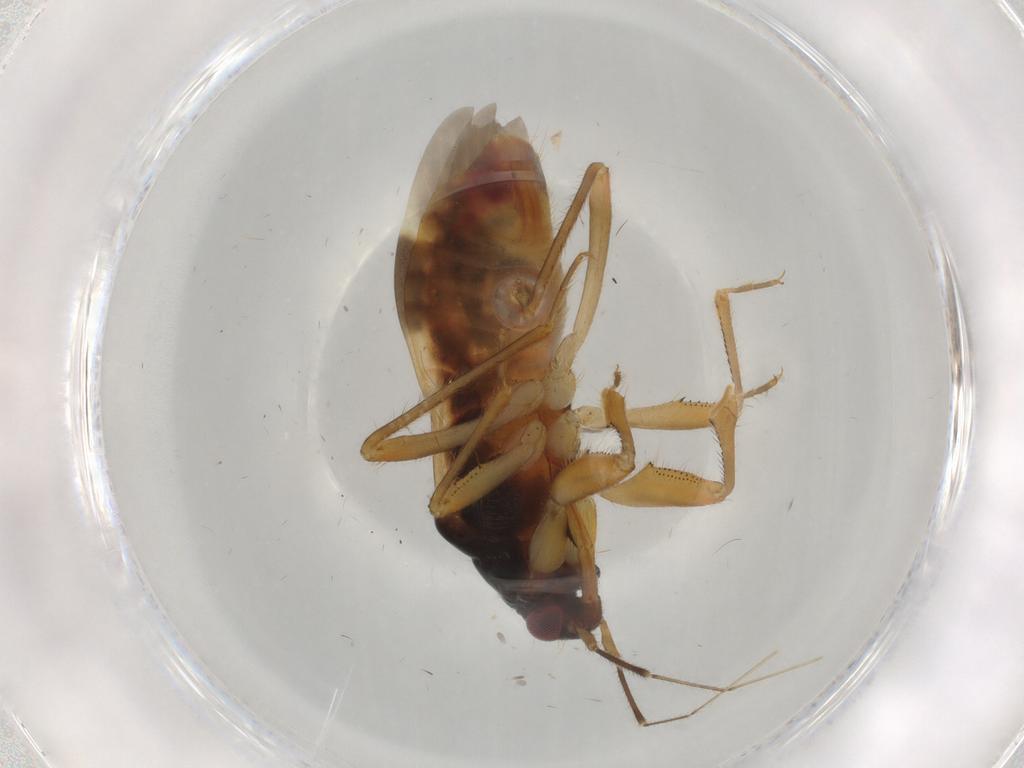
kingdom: Animalia
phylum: Arthropoda
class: Insecta
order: Hemiptera
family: Nabidae
